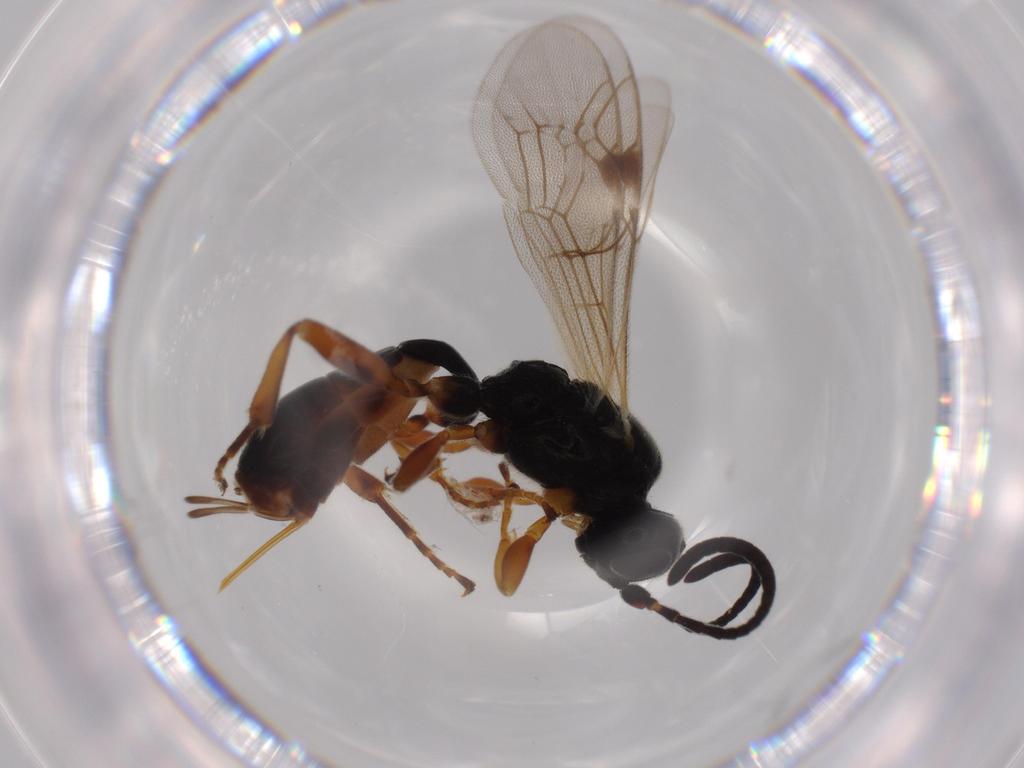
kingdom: Animalia
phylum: Arthropoda
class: Insecta
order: Hymenoptera
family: Ichneumonidae
